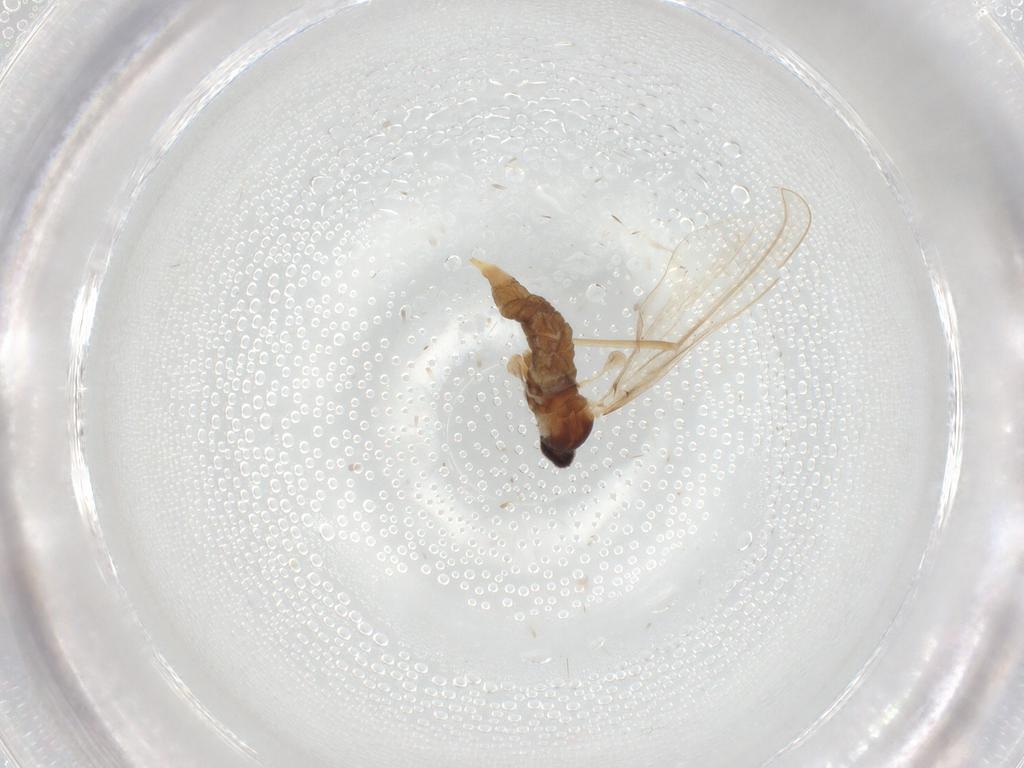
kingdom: Animalia
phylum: Arthropoda
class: Insecta
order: Diptera
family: Cecidomyiidae
